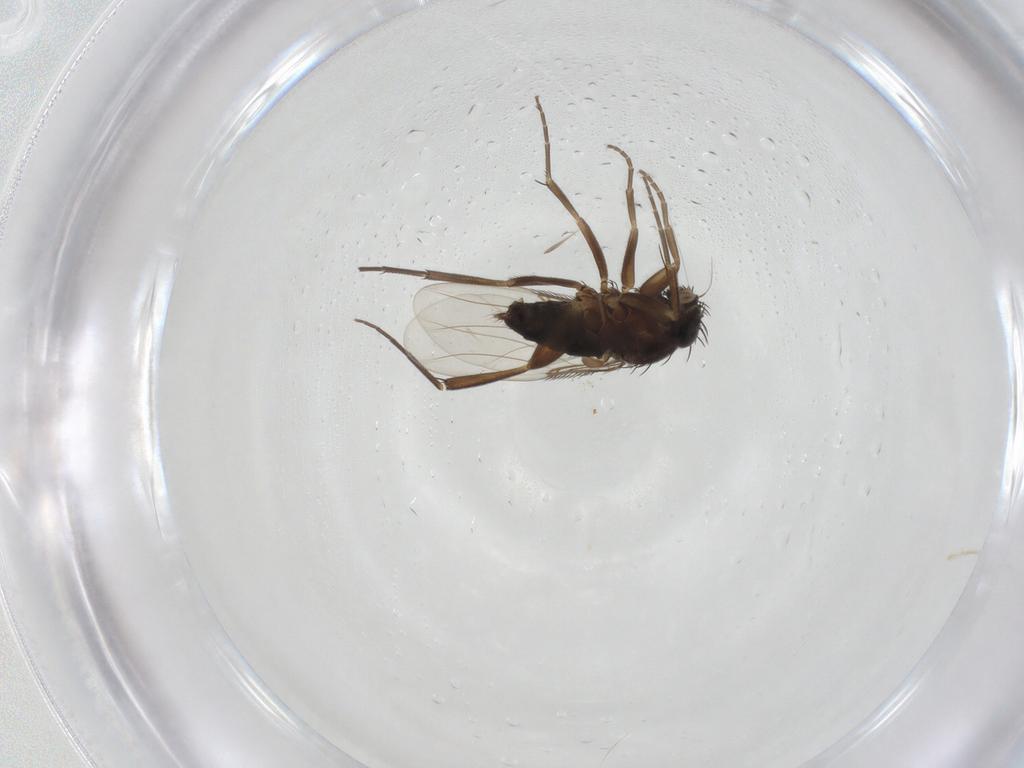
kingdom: Animalia
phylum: Arthropoda
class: Insecta
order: Diptera
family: Phoridae
